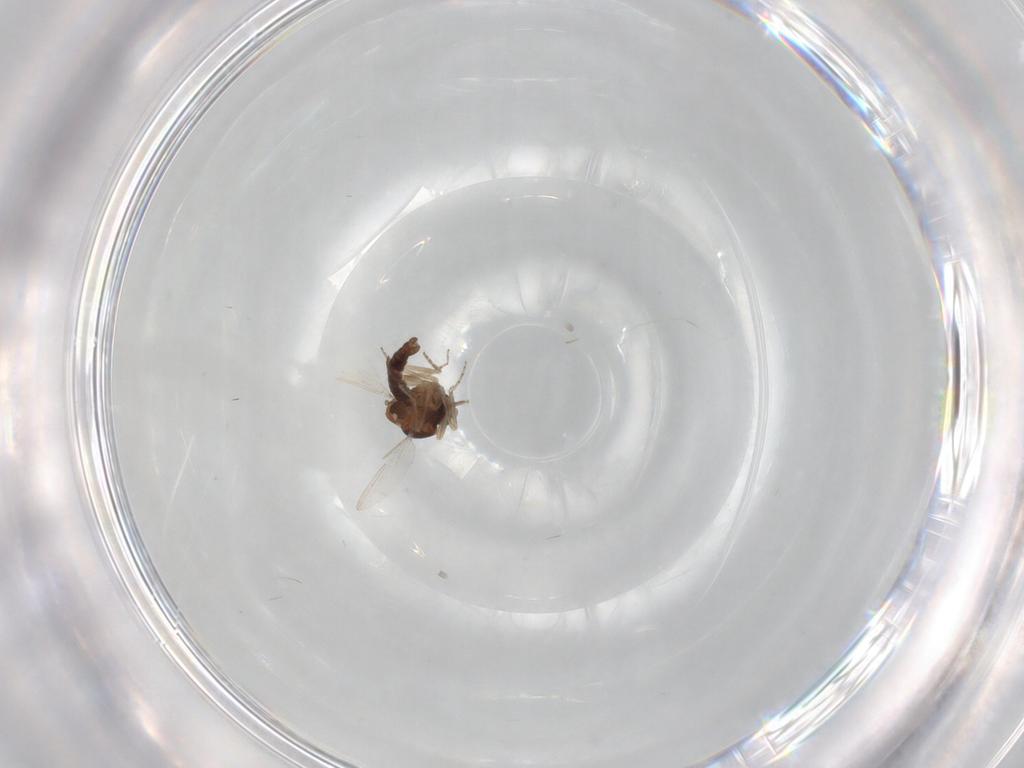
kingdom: Animalia
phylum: Arthropoda
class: Insecta
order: Diptera
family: Ceratopogonidae
